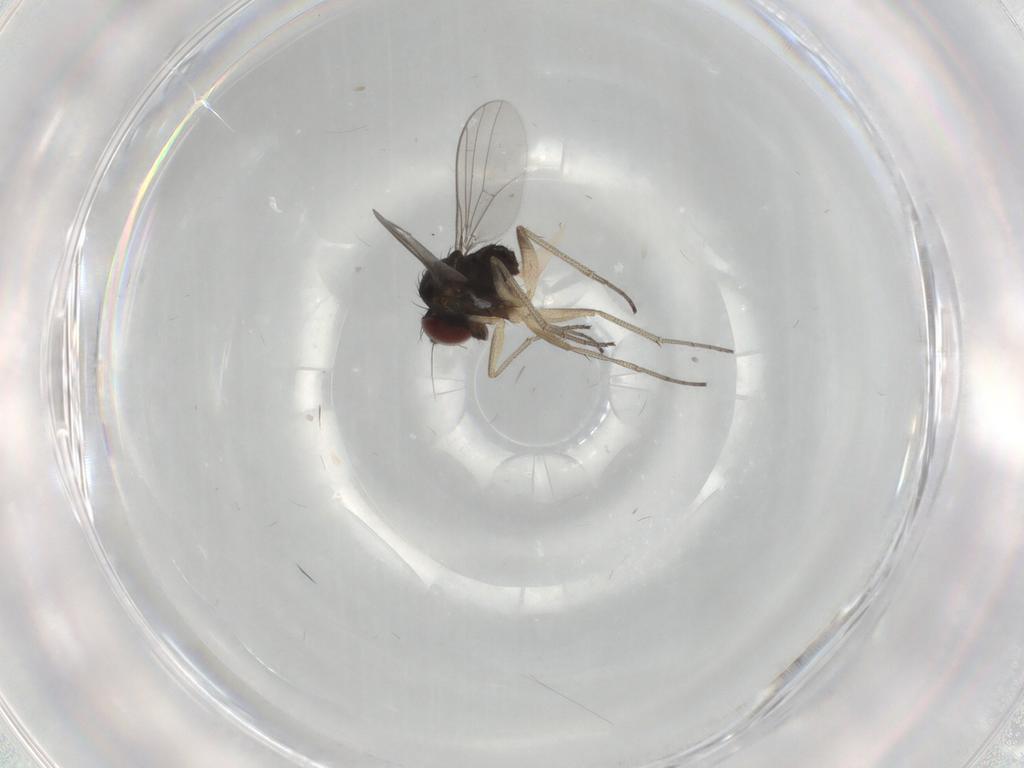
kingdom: Animalia
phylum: Arthropoda
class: Insecta
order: Diptera
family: Dolichopodidae
